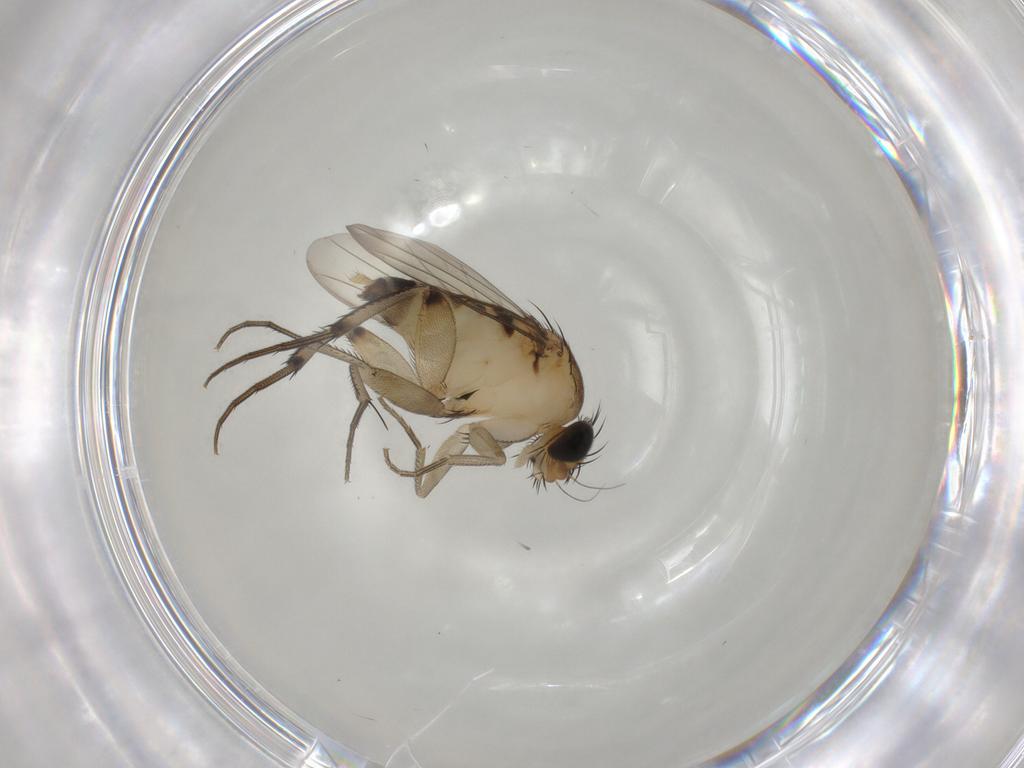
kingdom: Animalia
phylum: Arthropoda
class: Insecta
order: Diptera
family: Phoridae
